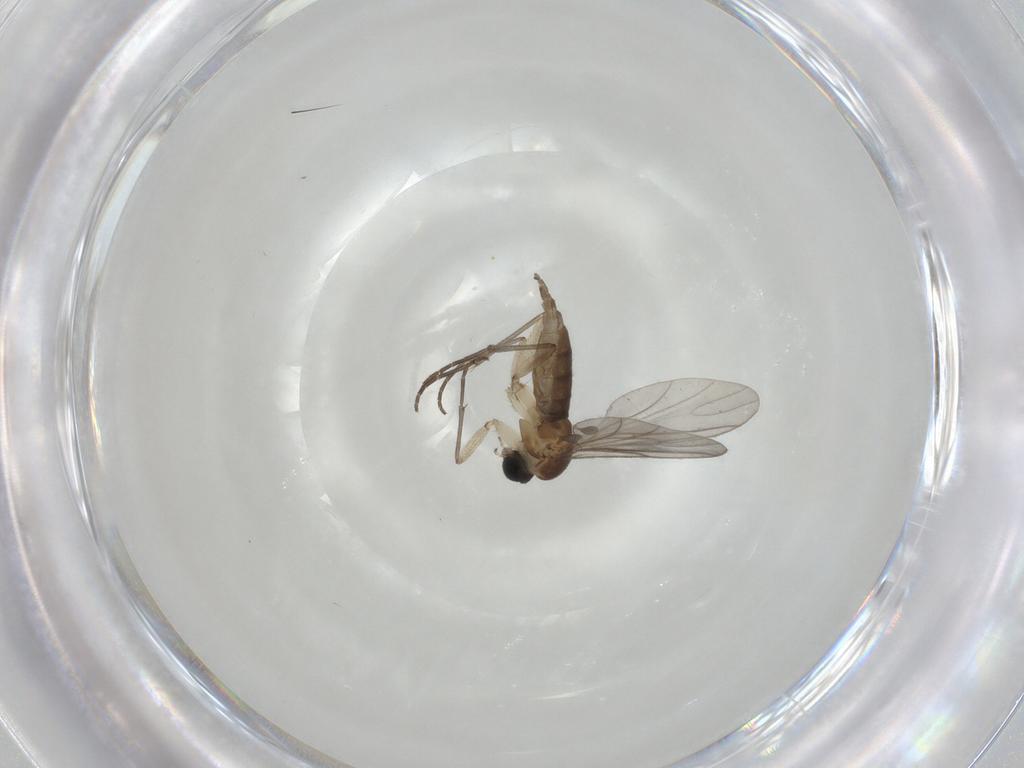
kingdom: Animalia
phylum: Arthropoda
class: Insecta
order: Diptera
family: Sciaridae
